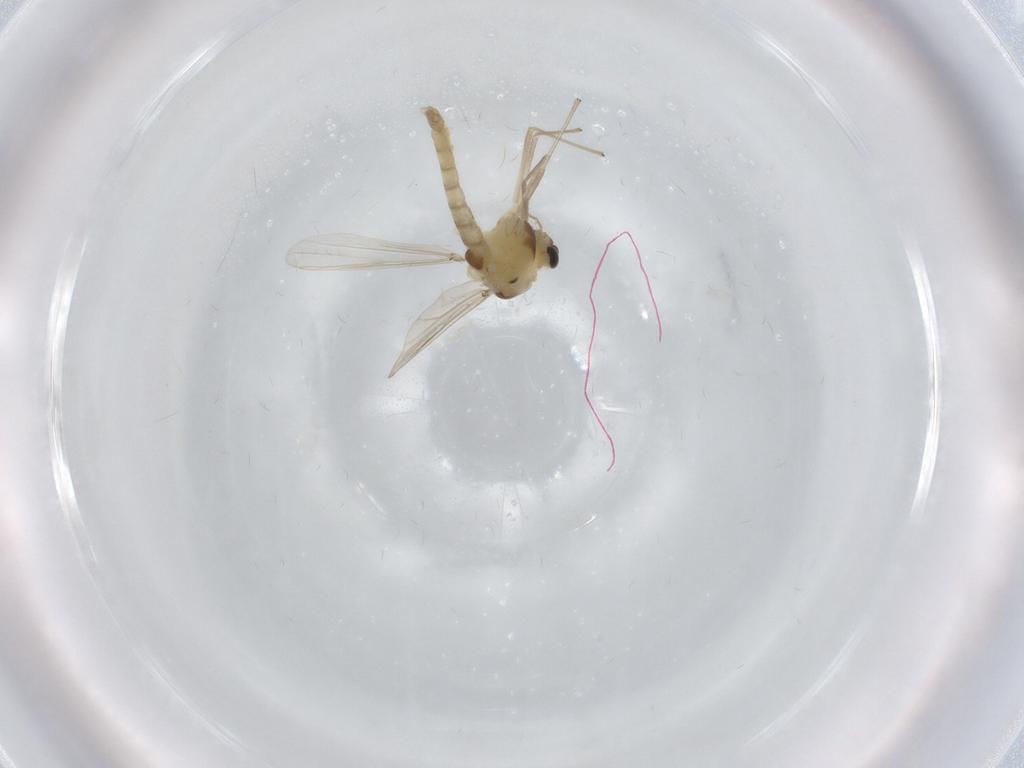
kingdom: Animalia
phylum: Arthropoda
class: Insecta
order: Diptera
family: Chironomidae
